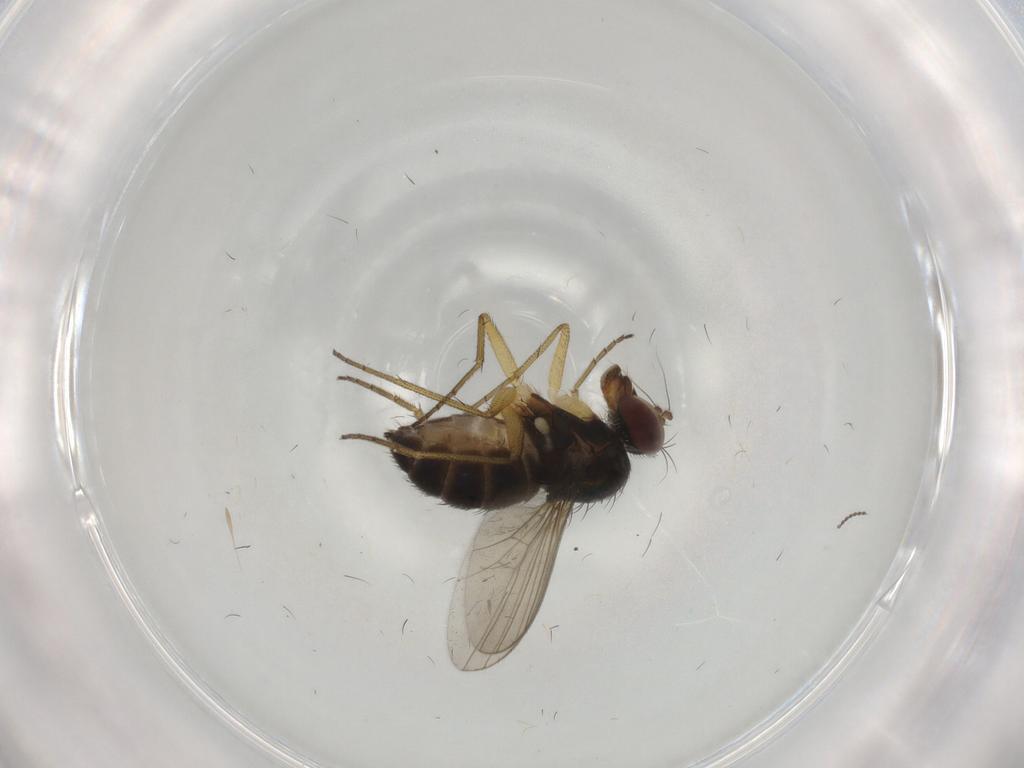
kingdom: Animalia
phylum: Arthropoda
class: Insecta
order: Diptera
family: Dolichopodidae
